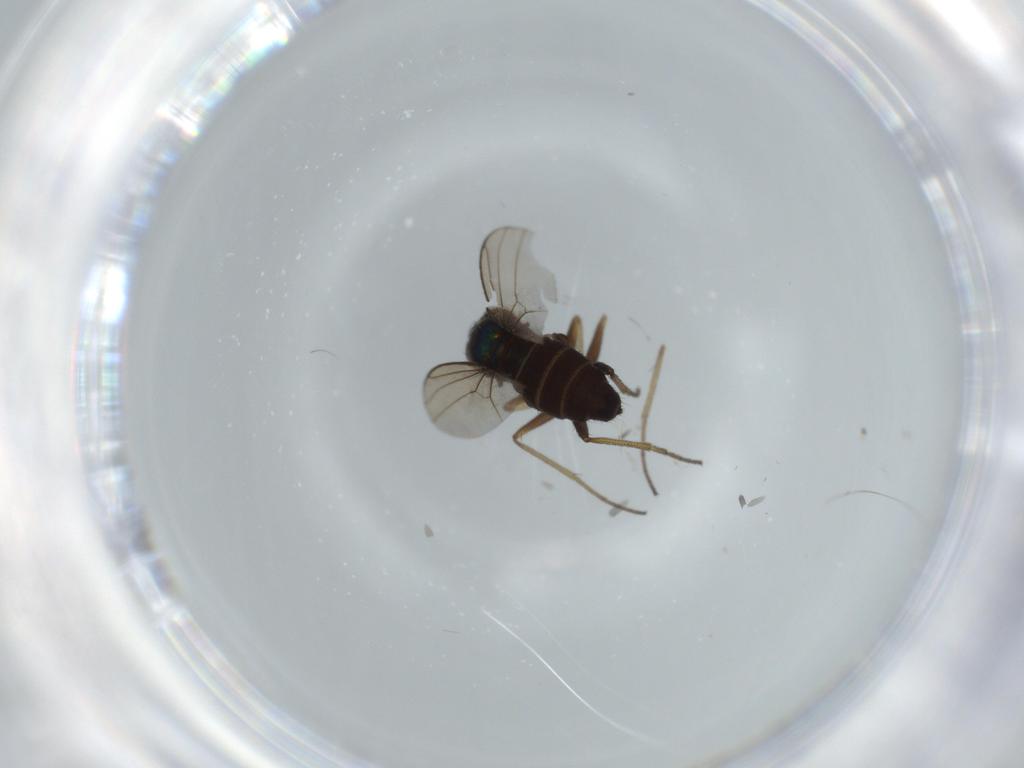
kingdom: Animalia
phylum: Arthropoda
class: Insecta
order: Diptera
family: Dolichopodidae
